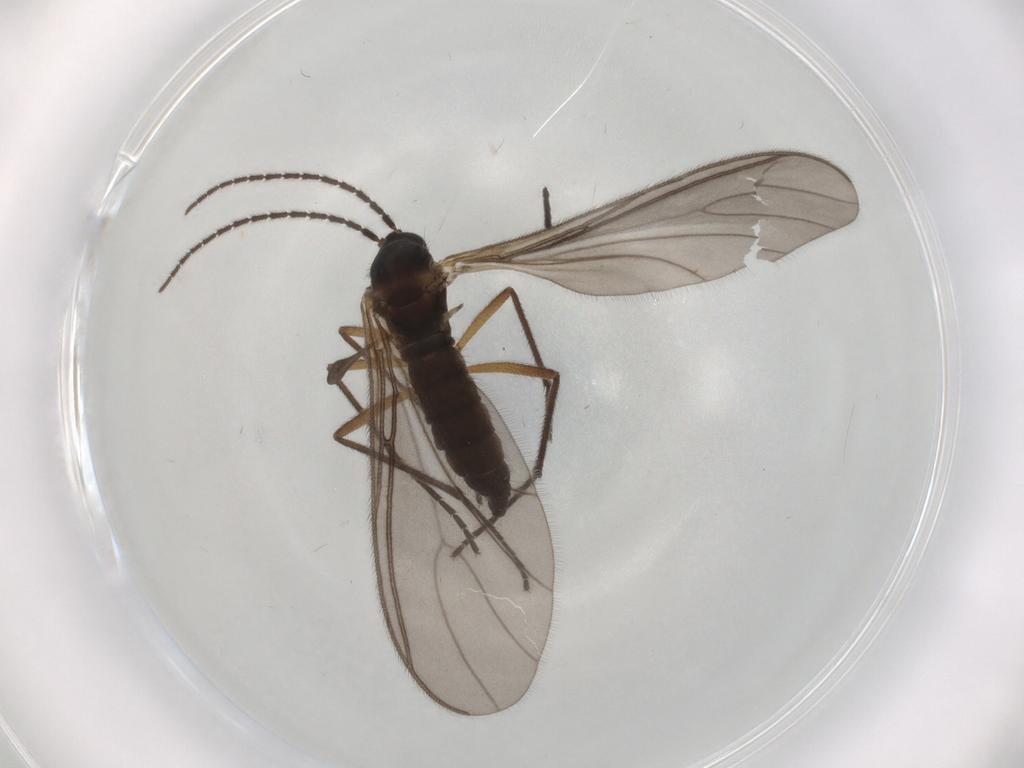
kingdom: Animalia
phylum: Arthropoda
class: Insecta
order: Diptera
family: Sciaridae
